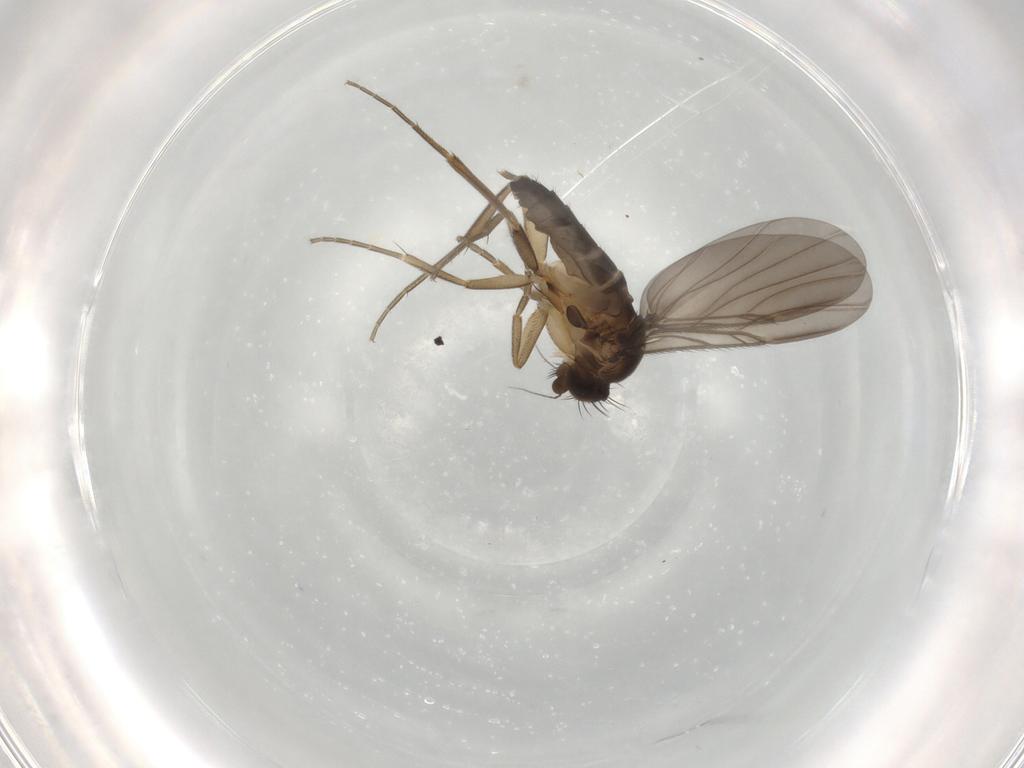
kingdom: Animalia
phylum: Arthropoda
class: Insecta
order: Diptera
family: Phoridae
